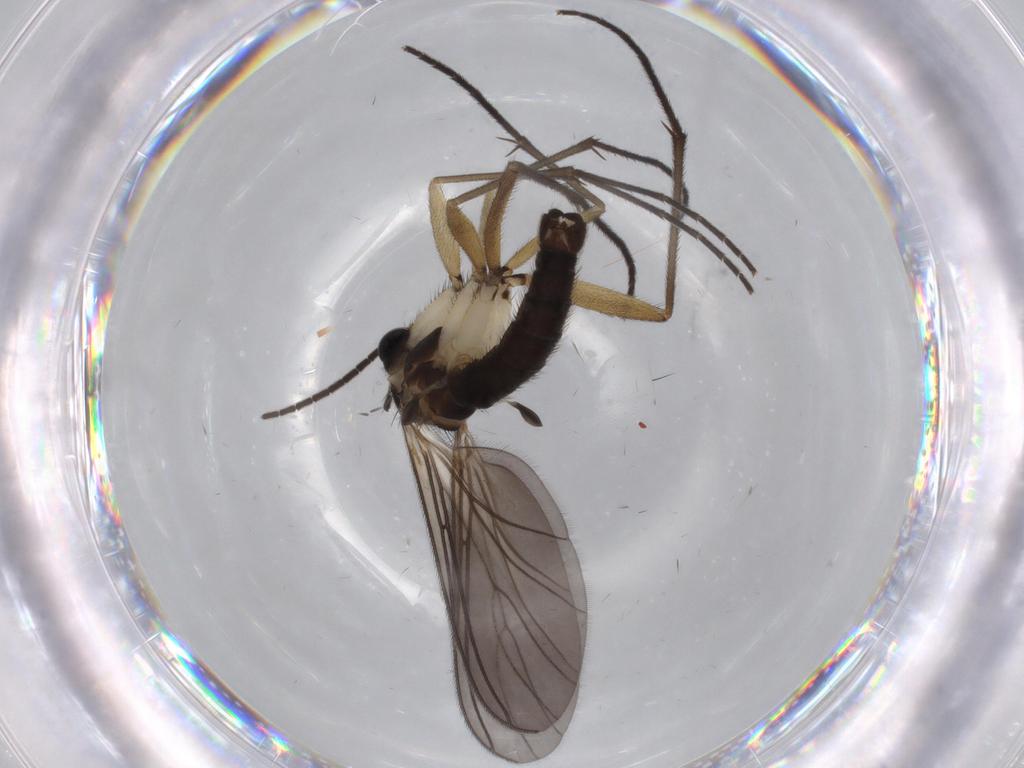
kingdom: Animalia
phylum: Arthropoda
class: Insecta
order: Diptera
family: Sciaridae
